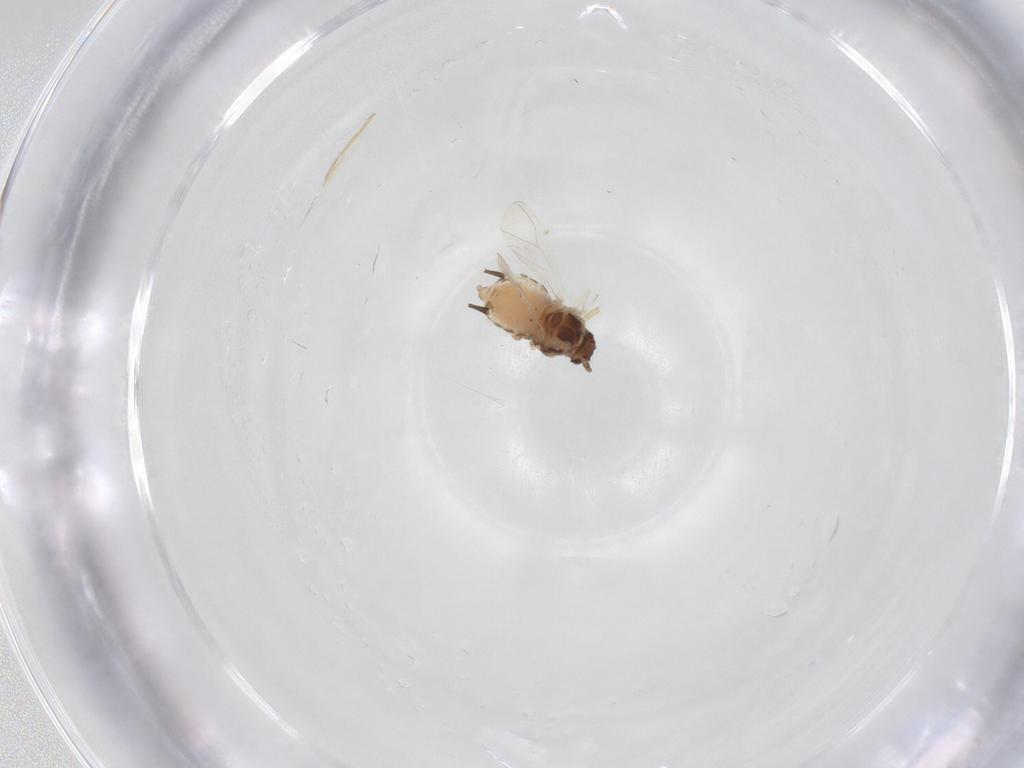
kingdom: Animalia
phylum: Arthropoda
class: Insecta
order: Hemiptera
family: Aphididae
